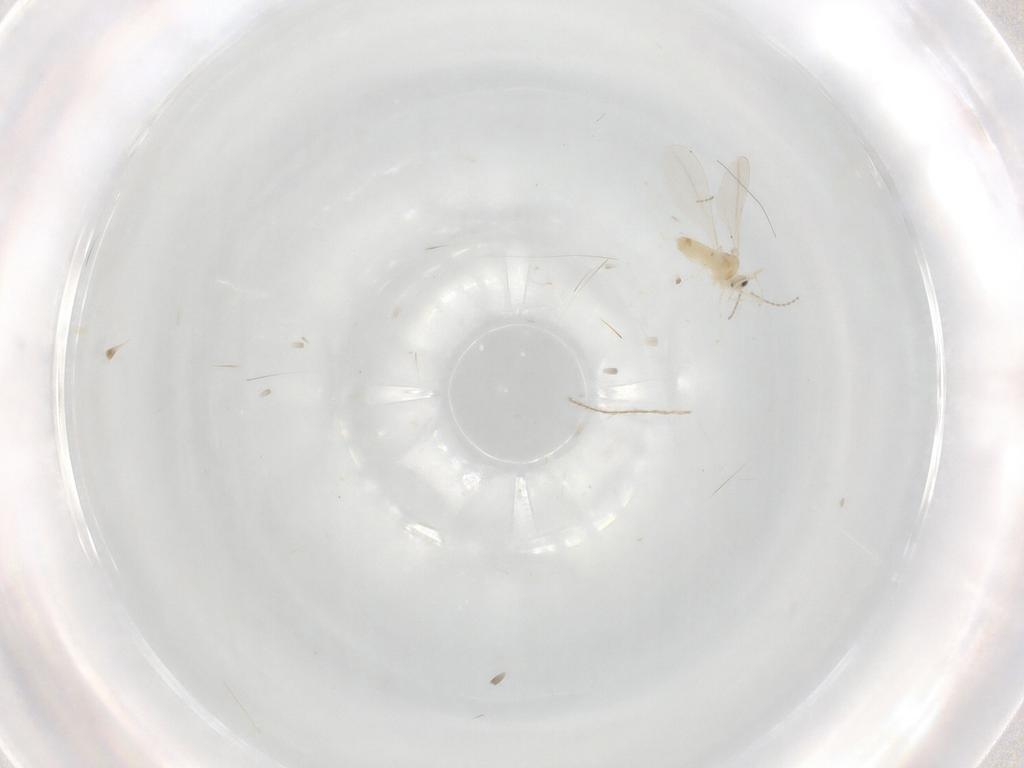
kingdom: Animalia
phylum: Arthropoda
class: Insecta
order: Diptera
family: Cecidomyiidae
